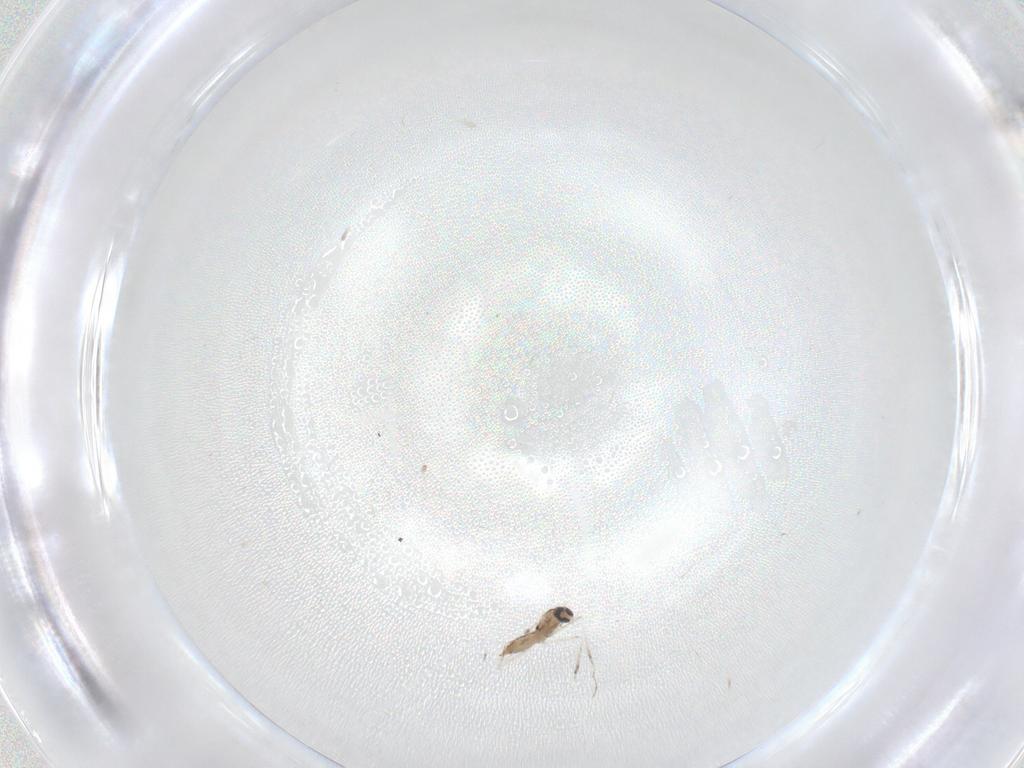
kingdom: Animalia
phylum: Arthropoda
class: Insecta
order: Diptera
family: Cecidomyiidae
